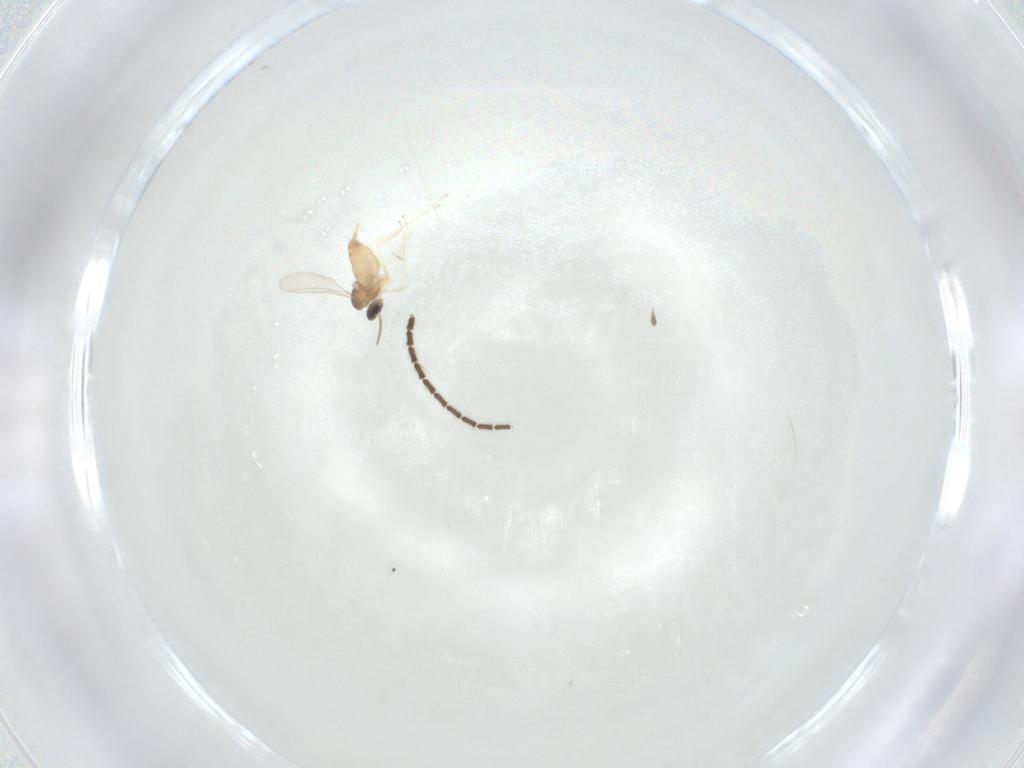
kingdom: Animalia
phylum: Arthropoda
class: Insecta
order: Diptera
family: Cecidomyiidae
